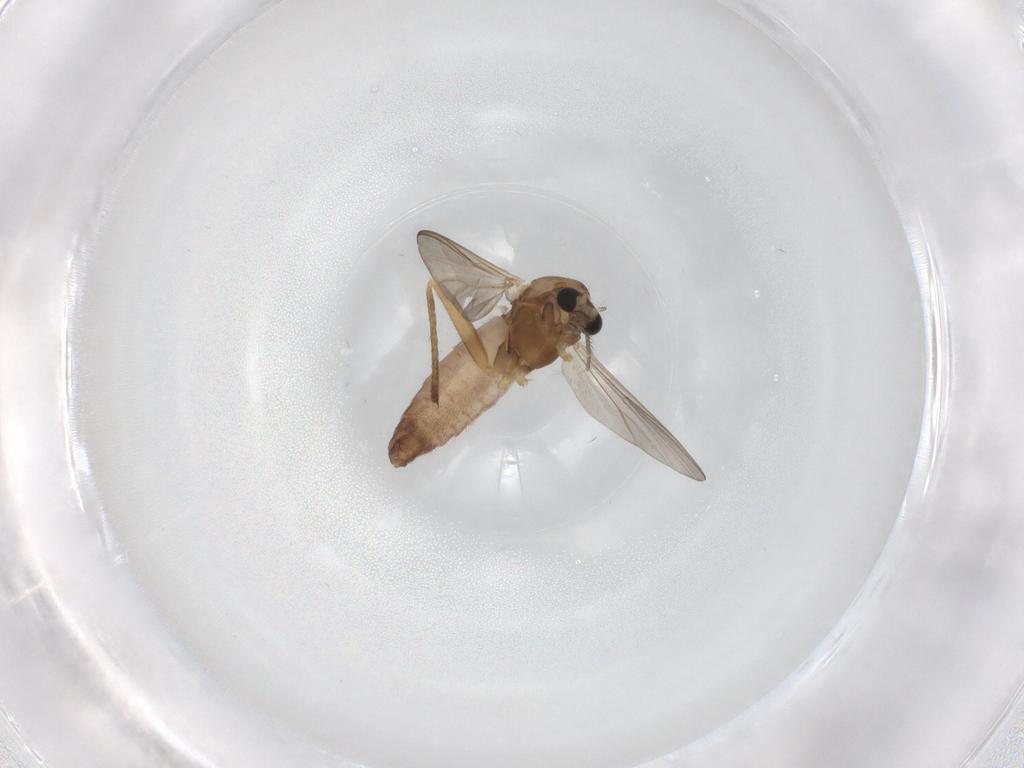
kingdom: Animalia
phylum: Arthropoda
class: Insecta
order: Diptera
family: Chironomidae
